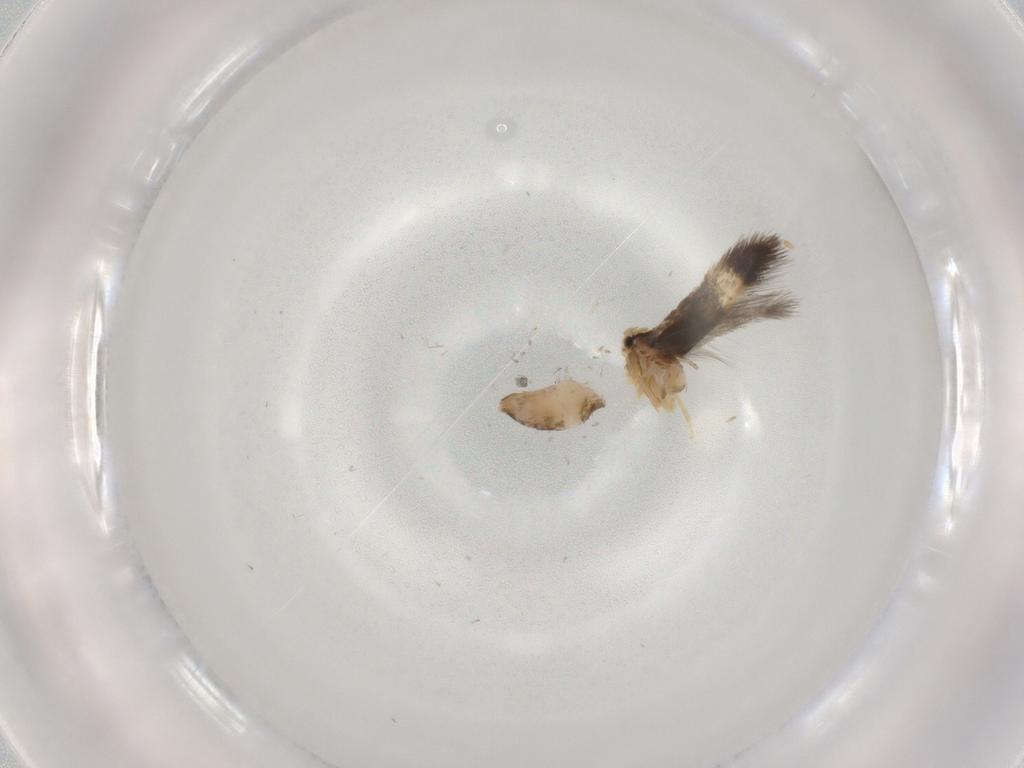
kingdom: Animalia
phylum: Arthropoda
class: Insecta
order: Lepidoptera
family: Nepticulidae
